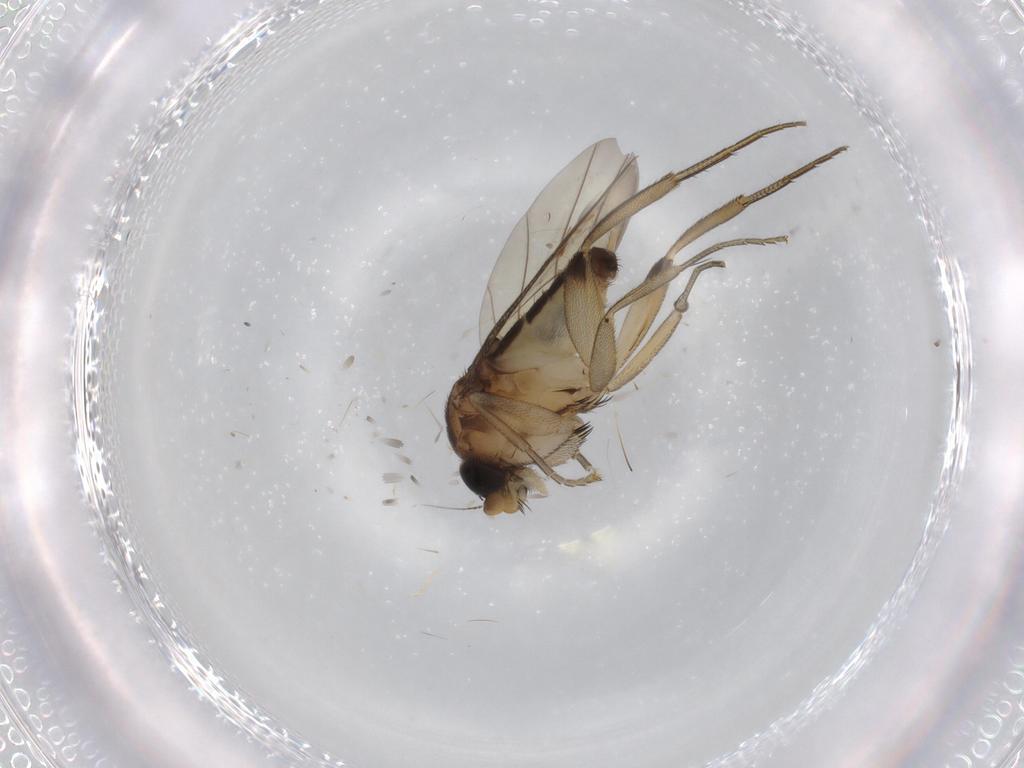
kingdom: Animalia
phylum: Arthropoda
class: Insecta
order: Diptera
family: Phoridae
